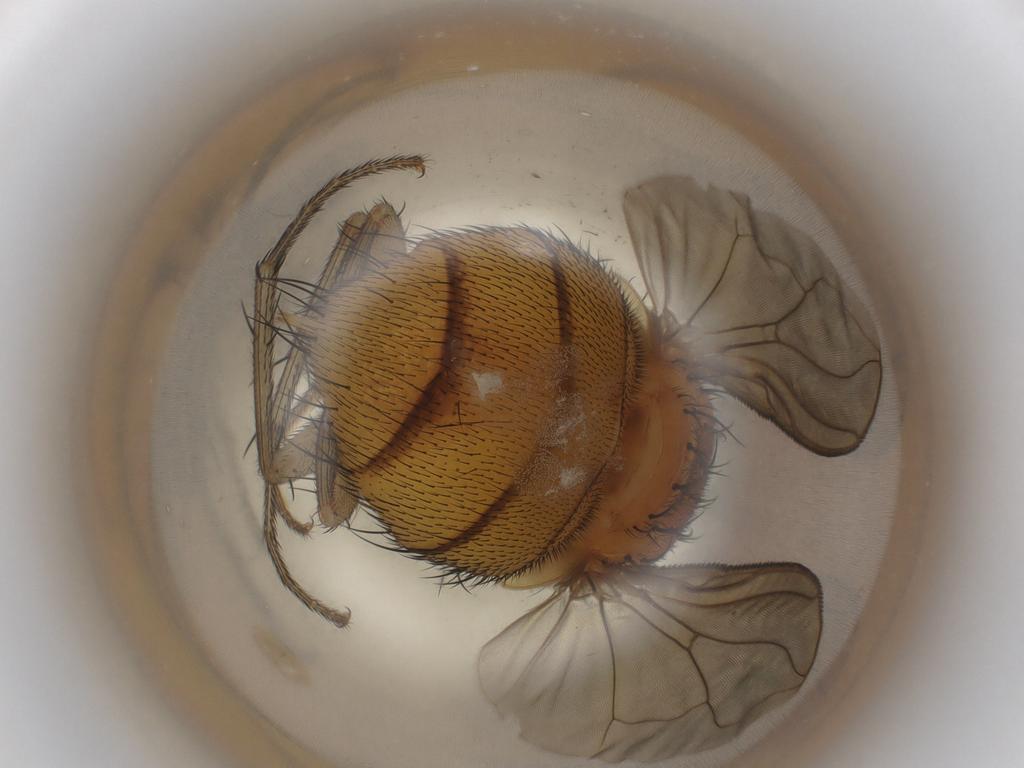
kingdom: Animalia
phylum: Arthropoda
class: Insecta
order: Diptera
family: Calliphoridae
